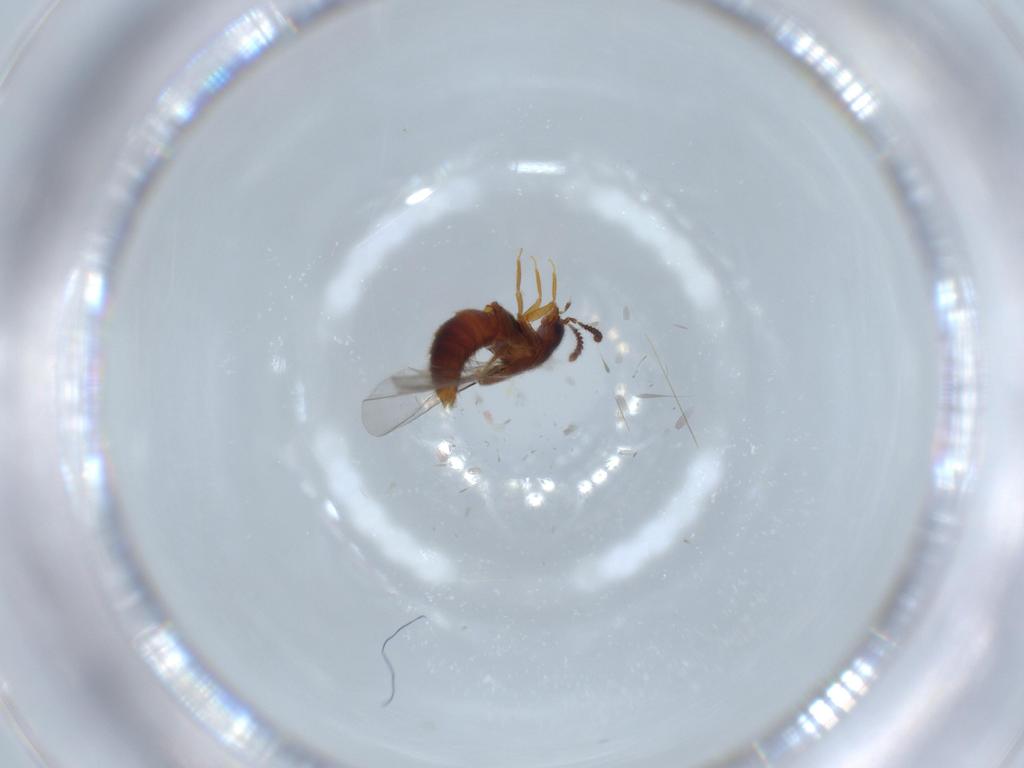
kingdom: Animalia
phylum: Arthropoda
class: Insecta
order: Coleoptera
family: Staphylinidae
